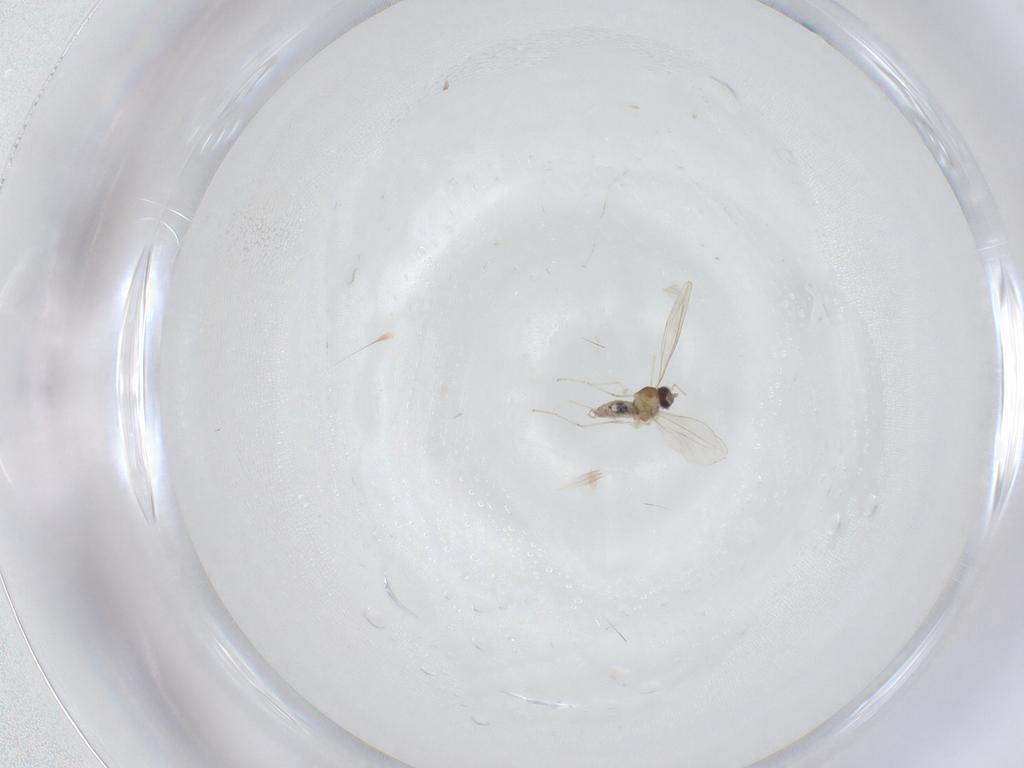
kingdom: Animalia
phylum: Arthropoda
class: Insecta
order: Diptera
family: Cecidomyiidae
